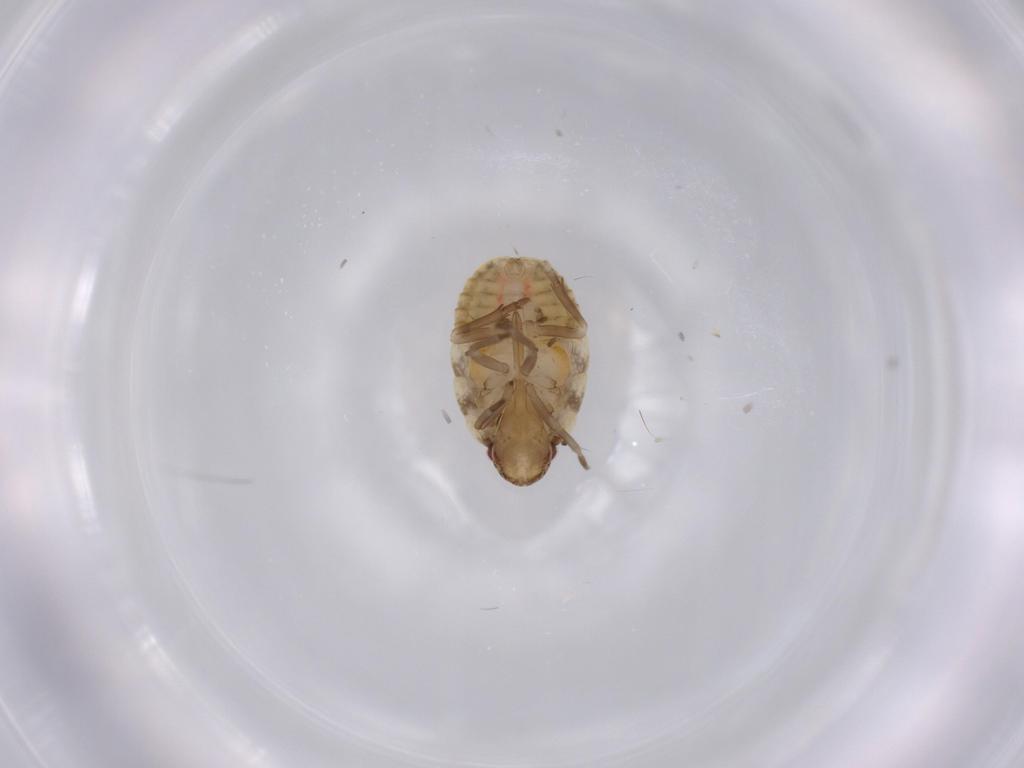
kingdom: Animalia
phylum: Arthropoda
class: Insecta
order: Hemiptera
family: Flatidae
